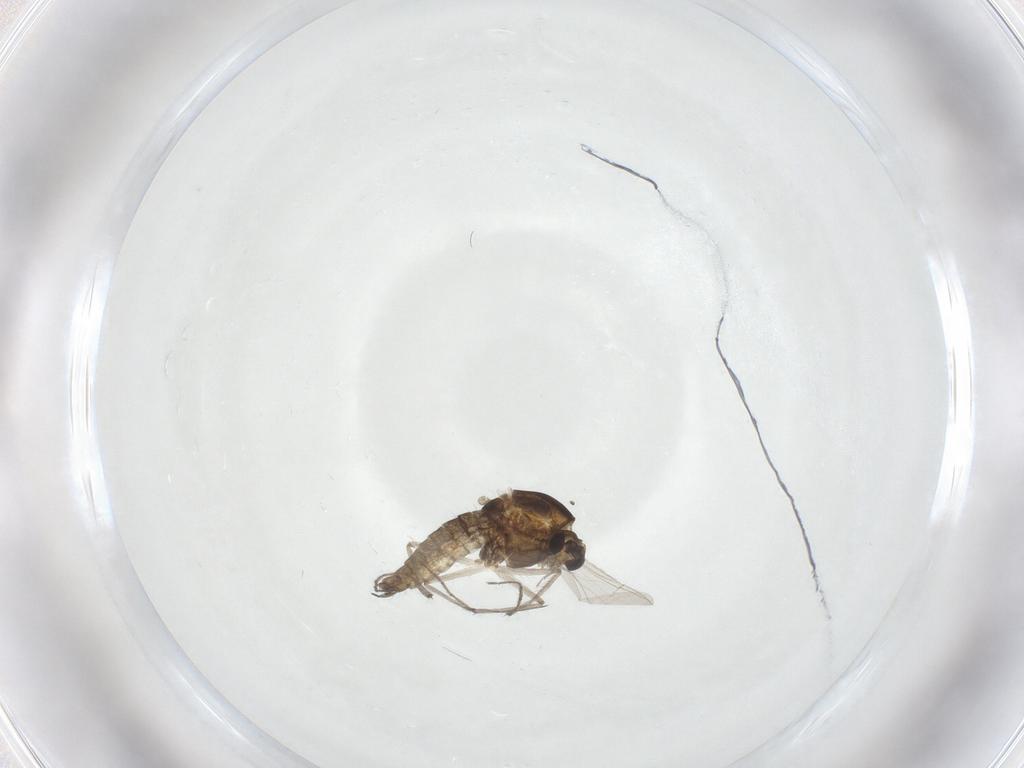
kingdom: Animalia
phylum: Arthropoda
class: Insecta
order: Diptera
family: Chironomidae
